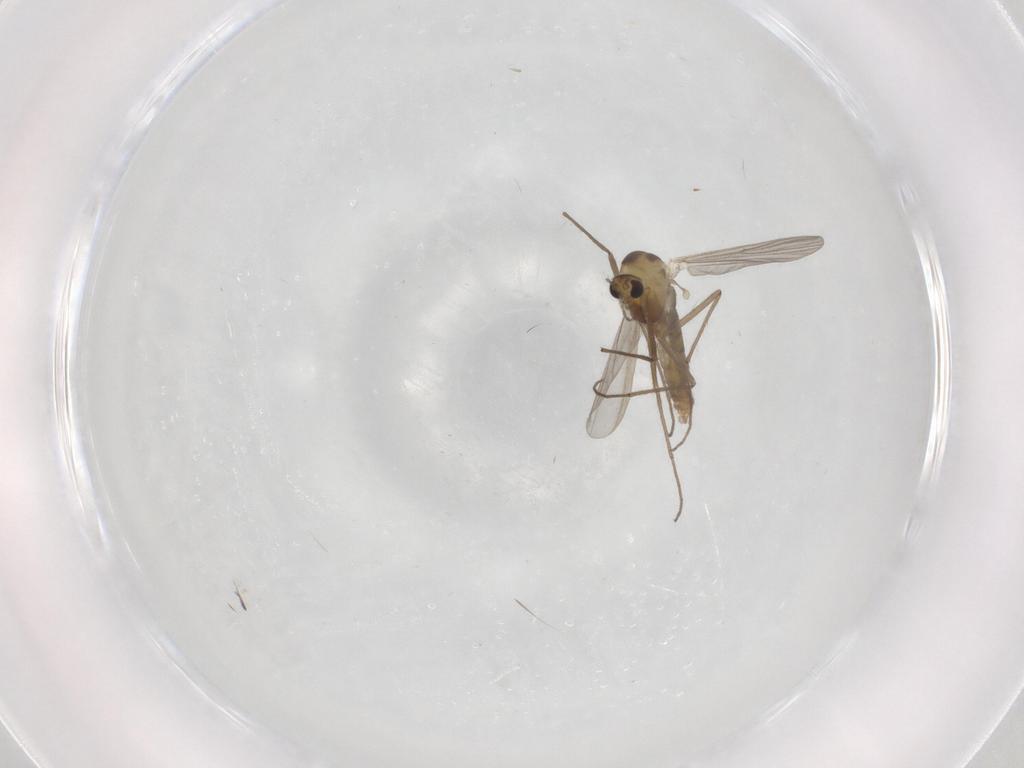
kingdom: Animalia
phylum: Arthropoda
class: Insecta
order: Diptera
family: Chironomidae
